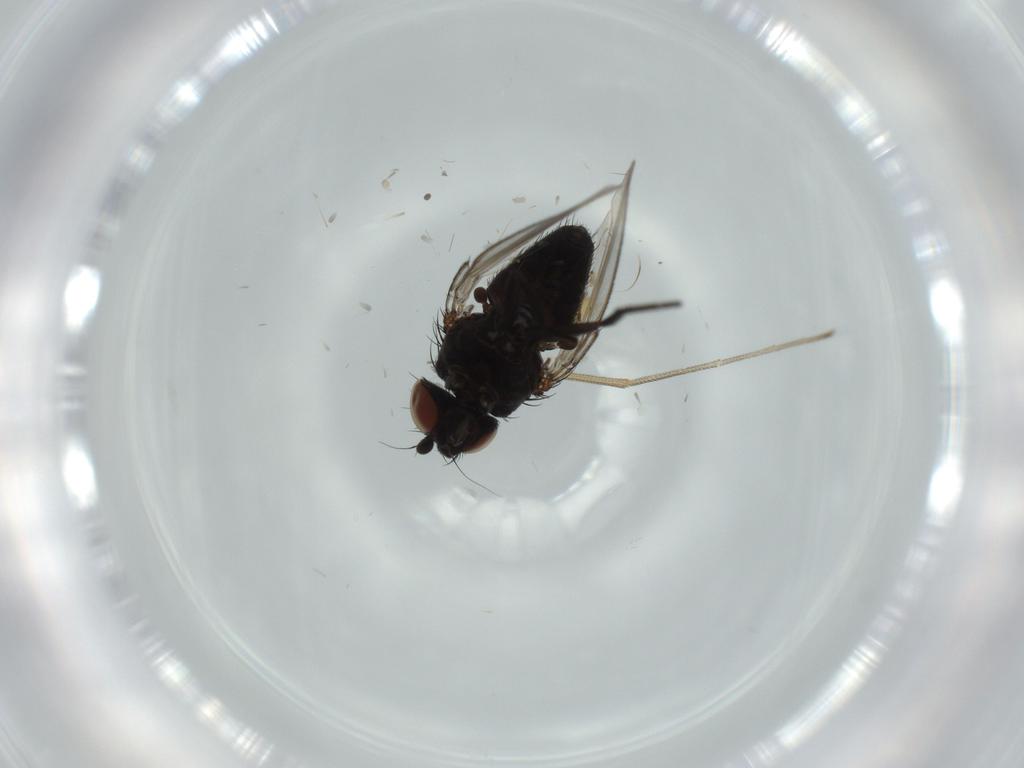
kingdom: Animalia
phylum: Arthropoda
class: Insecta
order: Diptera
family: Milichiidae
